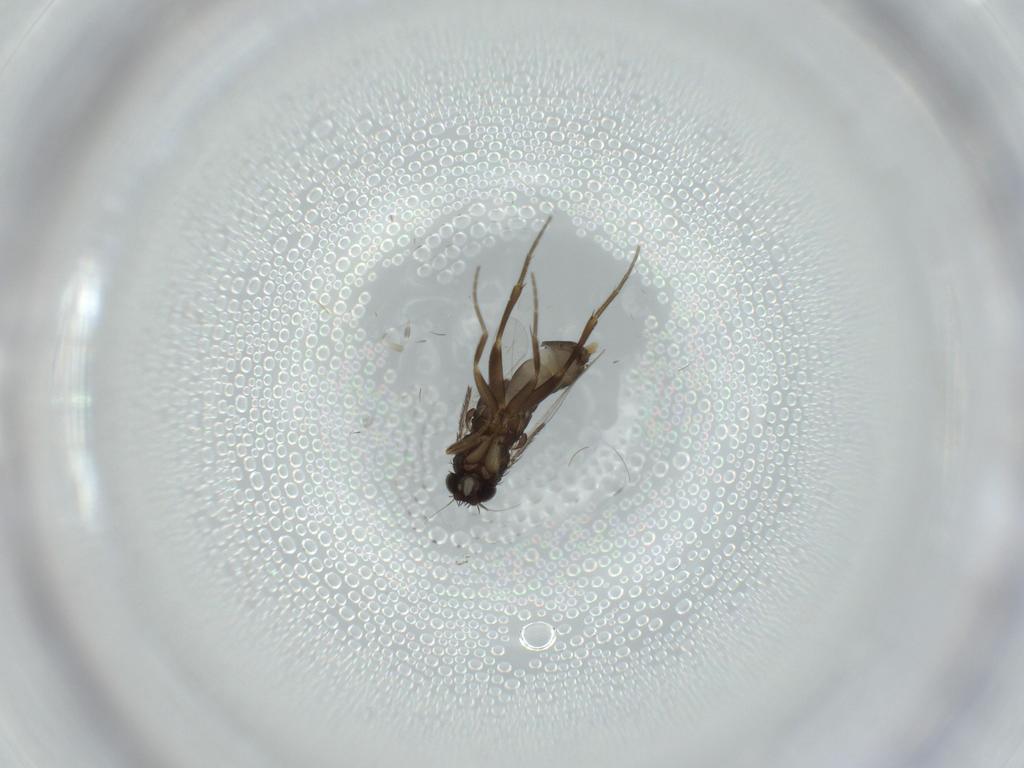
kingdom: Animalia
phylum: Arthropoda
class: Insecta
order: Diptera
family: Phoridae
